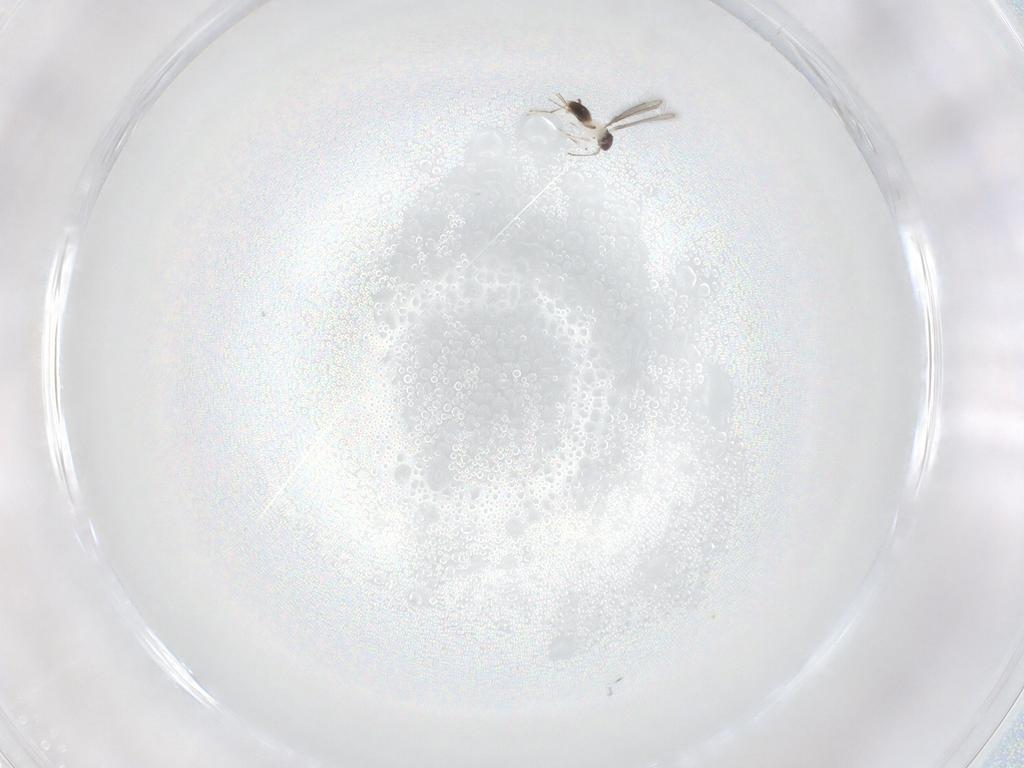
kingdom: Animalia
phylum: Arthropoda
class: Insecta
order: Hymenoptera
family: Mymaridae
